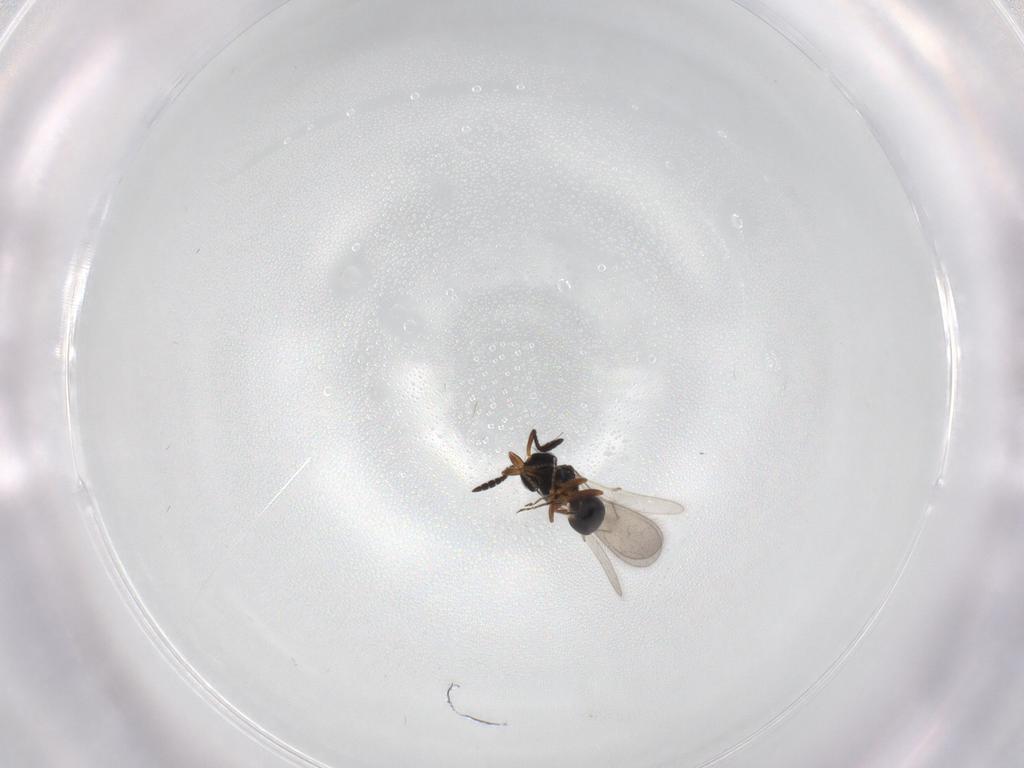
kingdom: Animalia
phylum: Arthropoda
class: Insecta
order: Hymenoptera
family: Scelionidae
